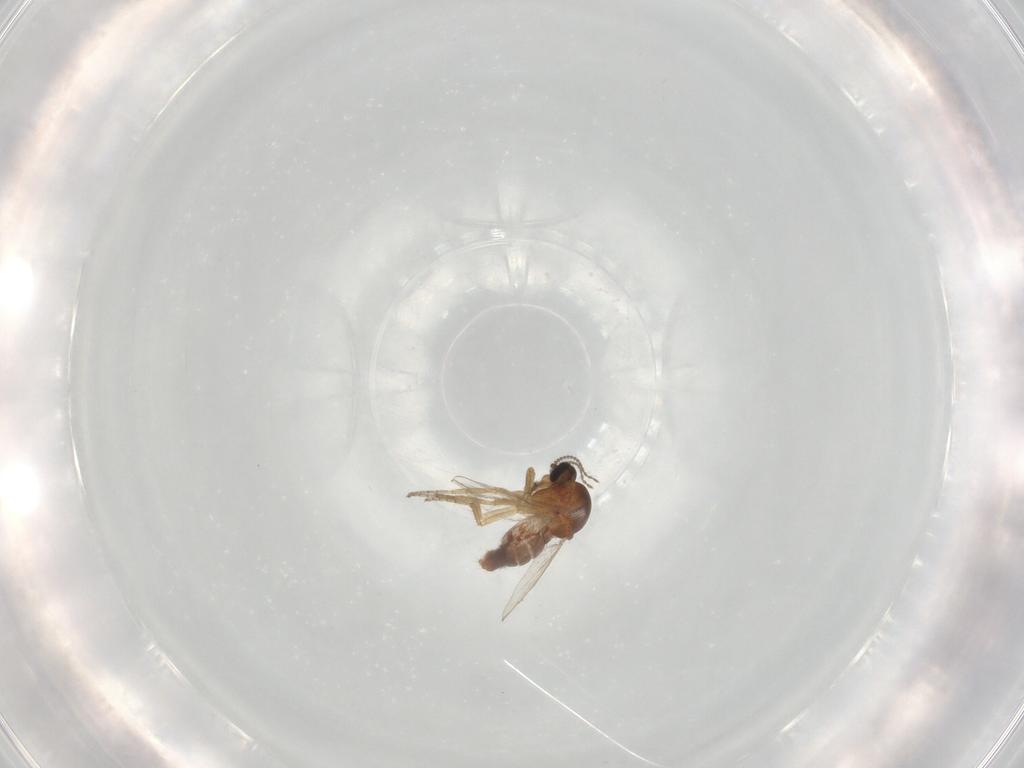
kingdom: Animalia
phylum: Arthropoda
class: Insecta
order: Diptera
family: Ceratopogonidae
